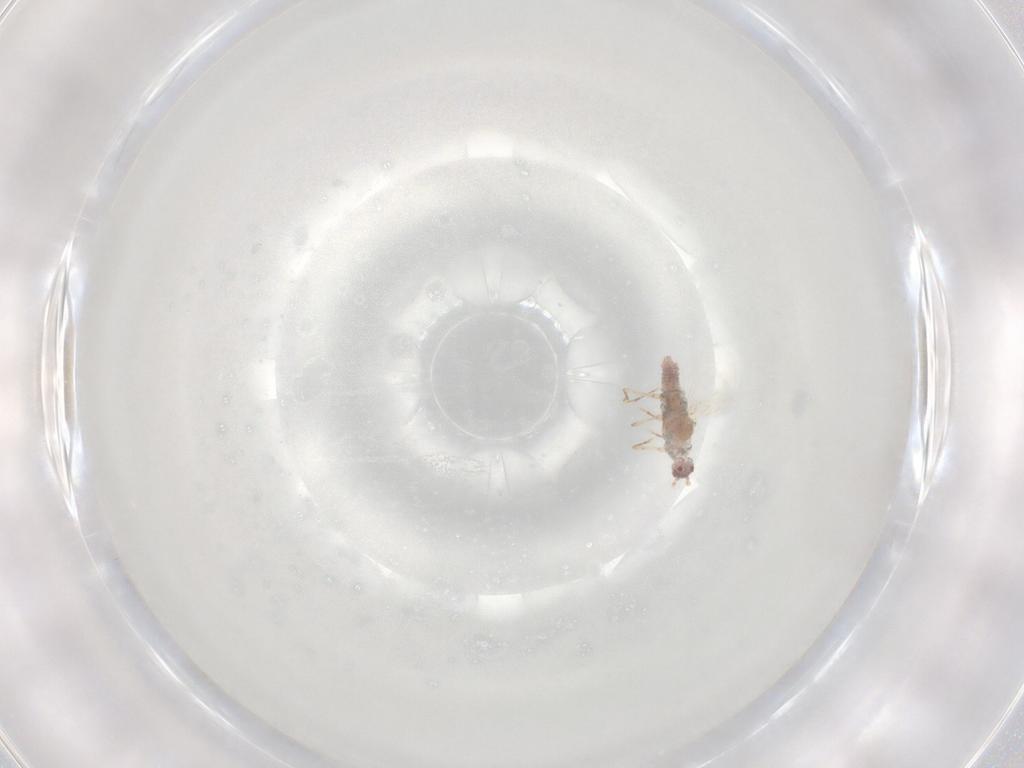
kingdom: Animalia
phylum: Arthropoda
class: Insecta
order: Hemiptera
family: Pseudococcidae
